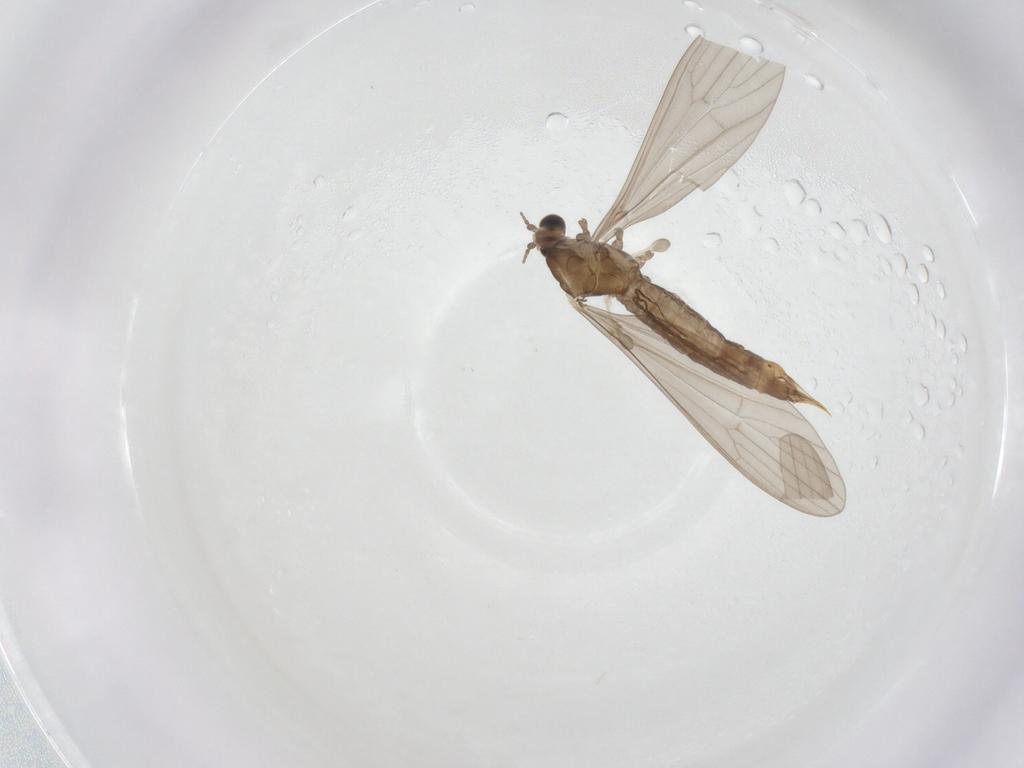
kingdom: Animalia
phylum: Arthropoda
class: Insecta
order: Diptera
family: Limoniidae
